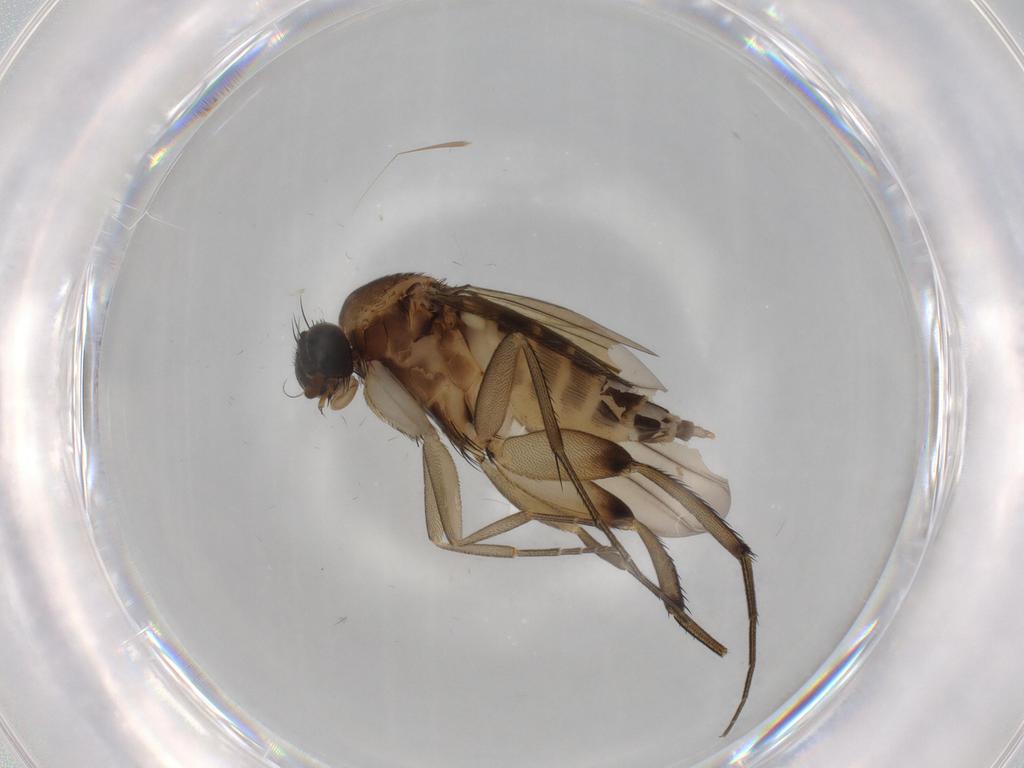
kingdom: Animalia
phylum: Arthropoda
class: Insecta
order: Diptera
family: Phoridae
